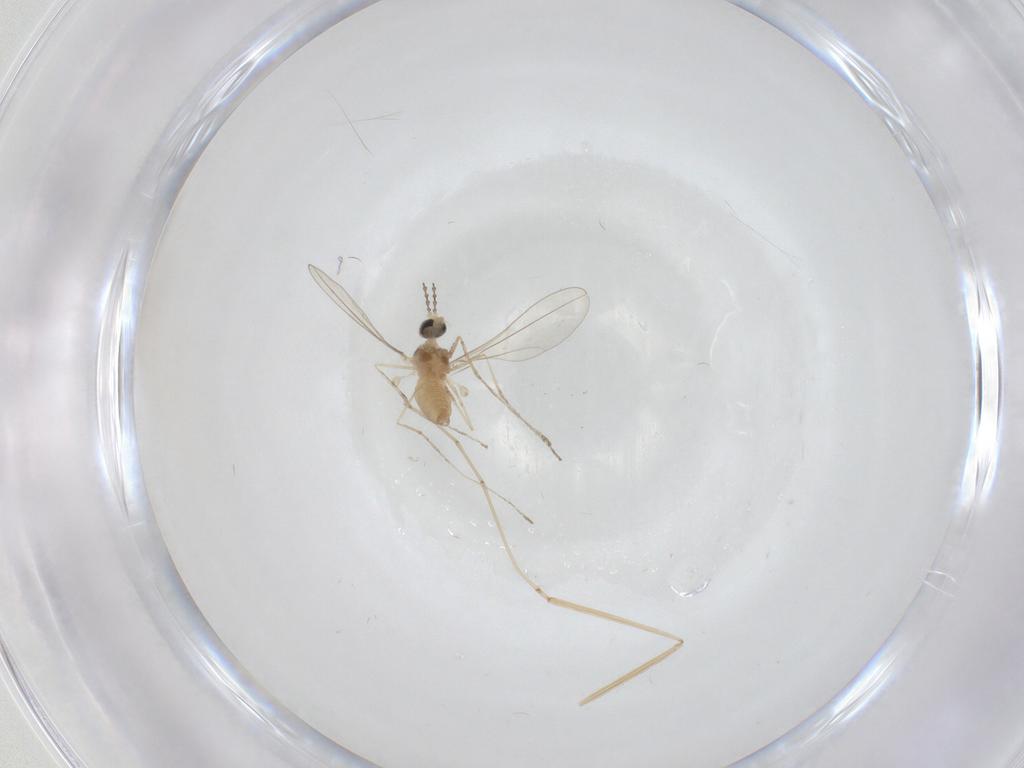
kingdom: Animalia
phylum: Arthropoda
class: Insecta
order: Diptera
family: Cecidomyiidae
